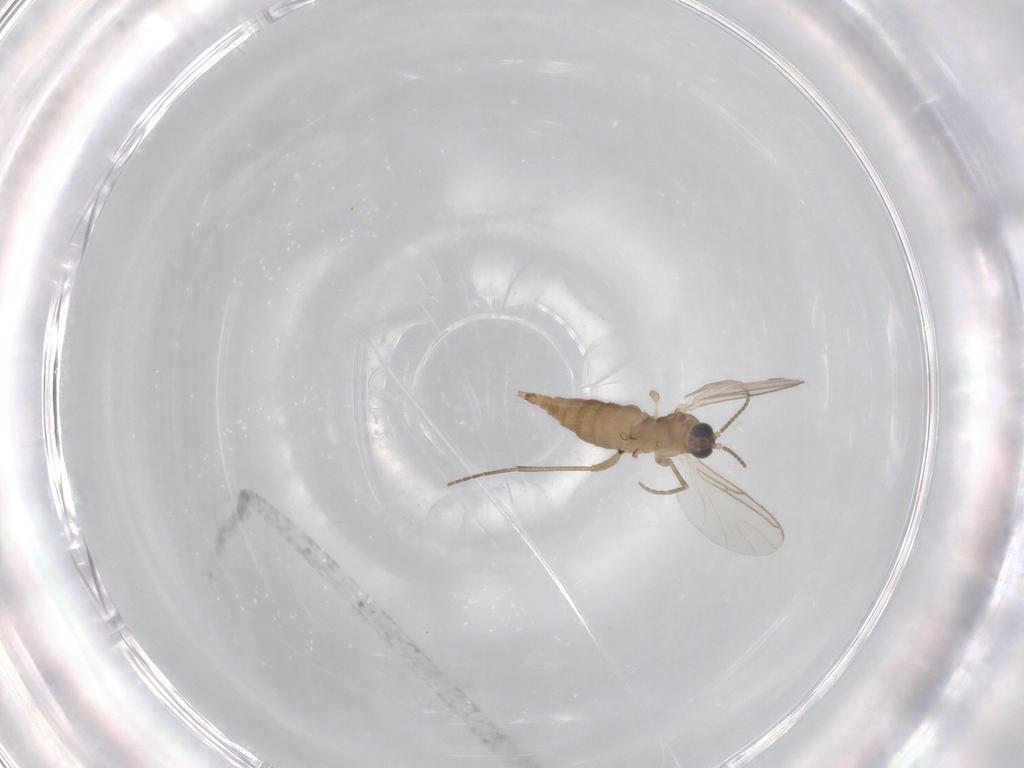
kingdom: Animalia
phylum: Arthropoda
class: Insecta
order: Diptera
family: Sciaridae
